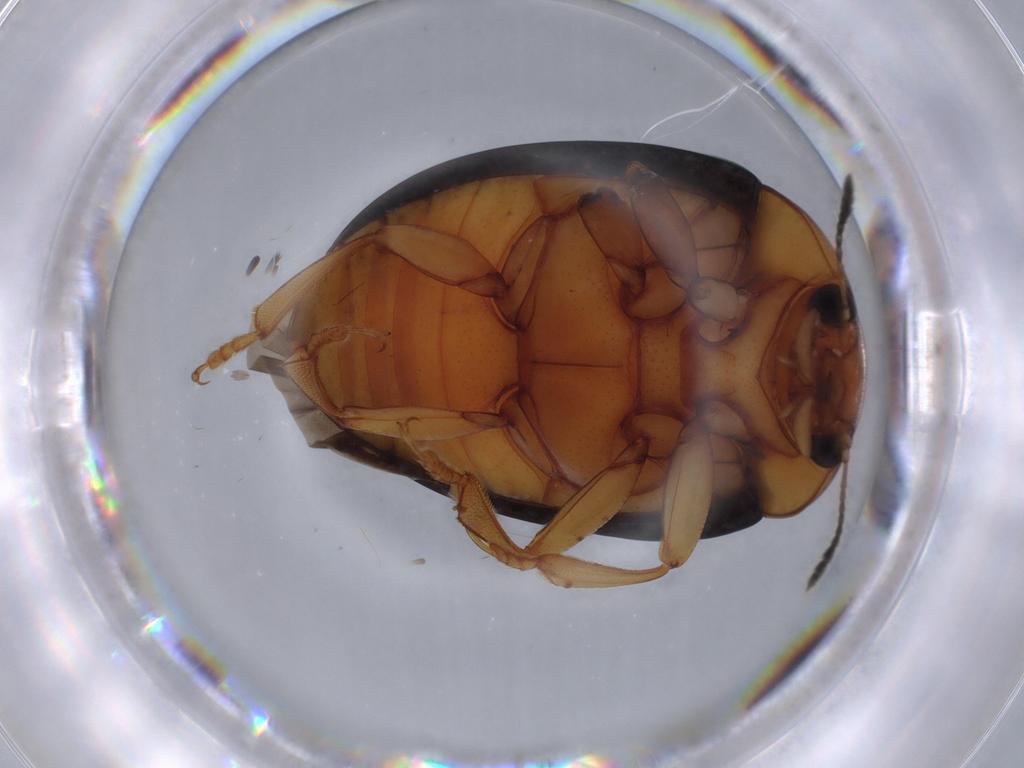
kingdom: Animalia
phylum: Arthropoda
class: Insecta
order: Coleoptera
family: Erotylidae
